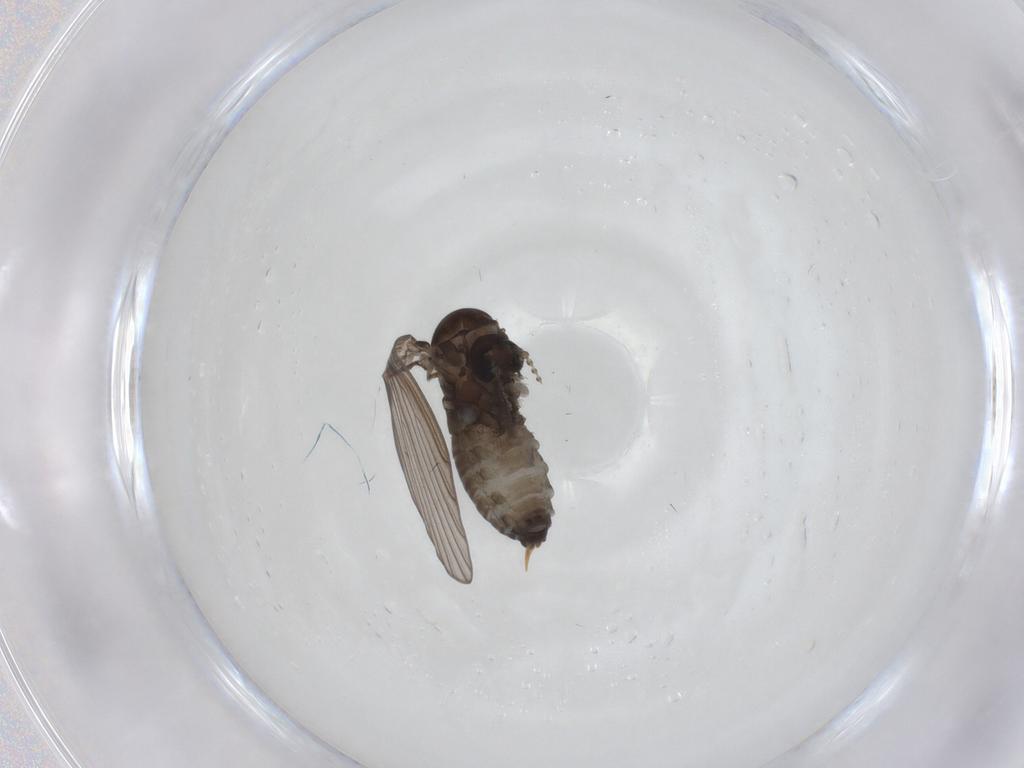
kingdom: Animalia
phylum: Arthropoda
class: Insecta
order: Diptera
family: Psychodidae
